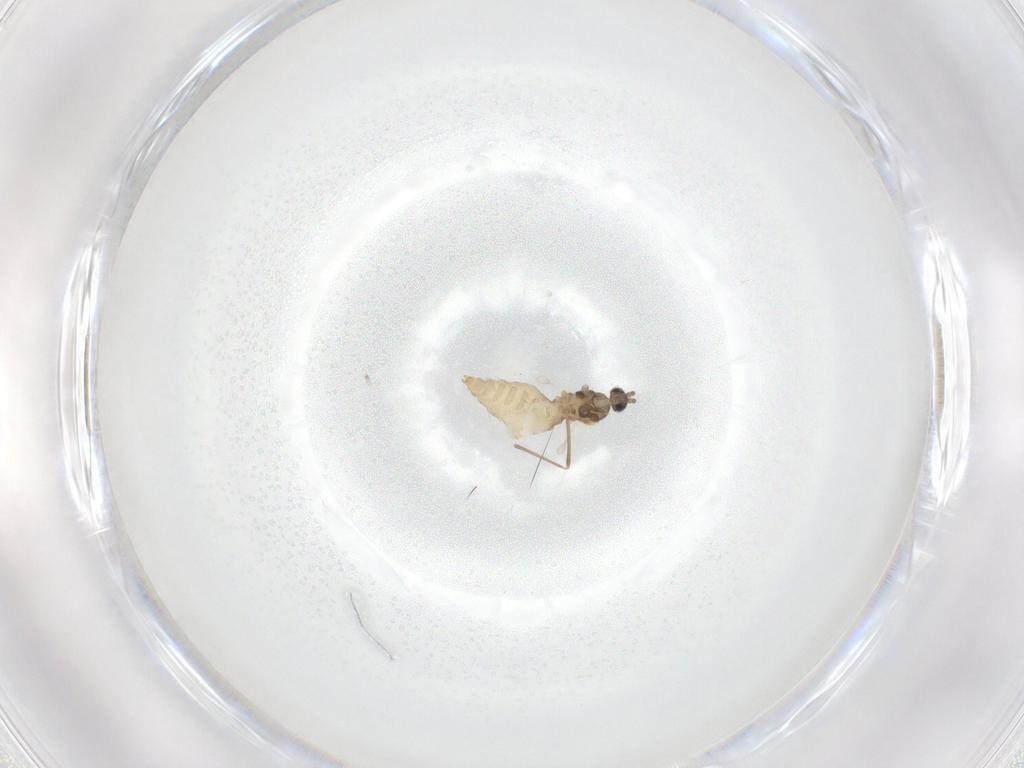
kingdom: Animalia
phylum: Arthropoda
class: Insecta
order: Diptera
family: Cecidomyiidae
